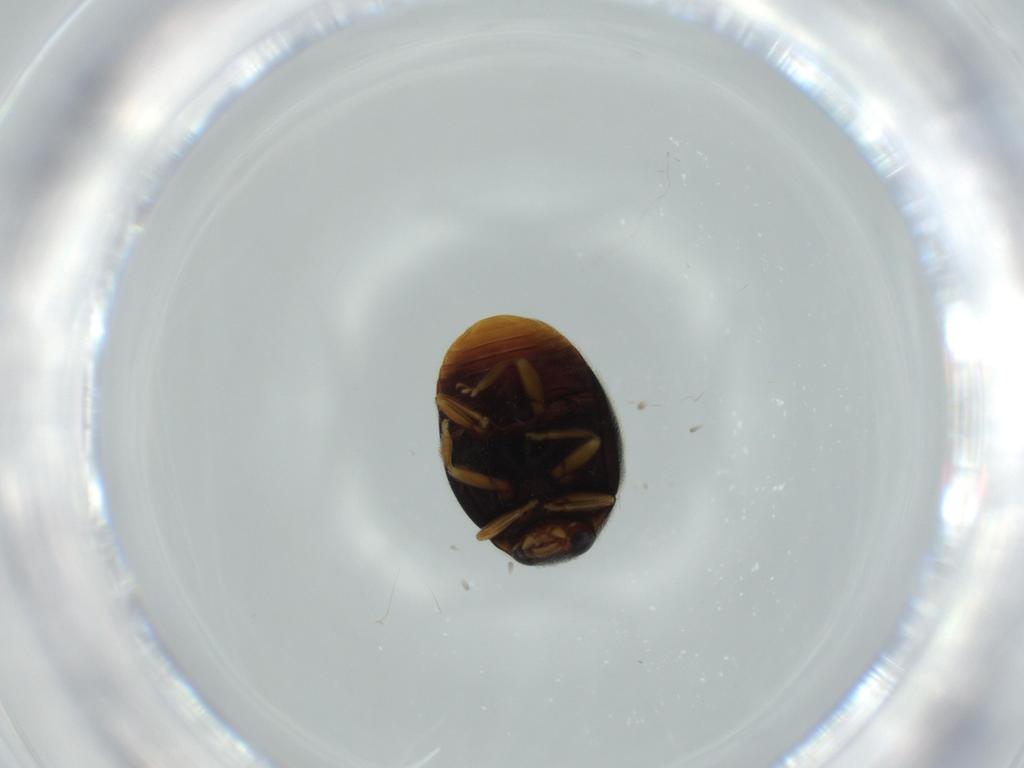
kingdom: Animalia
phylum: Arthropoda
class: Insecta
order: Coleoptera
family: Coccinellidae
